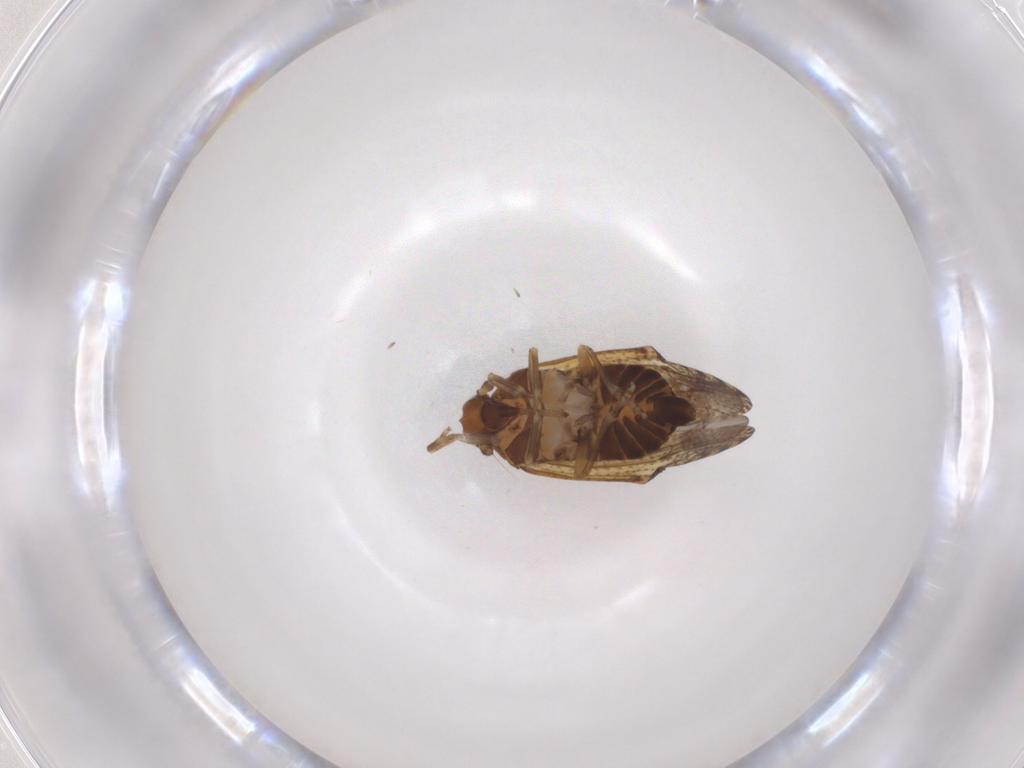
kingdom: Animalia
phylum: Arthropoda
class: Insecta
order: Hemiptera
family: Delphacidae
